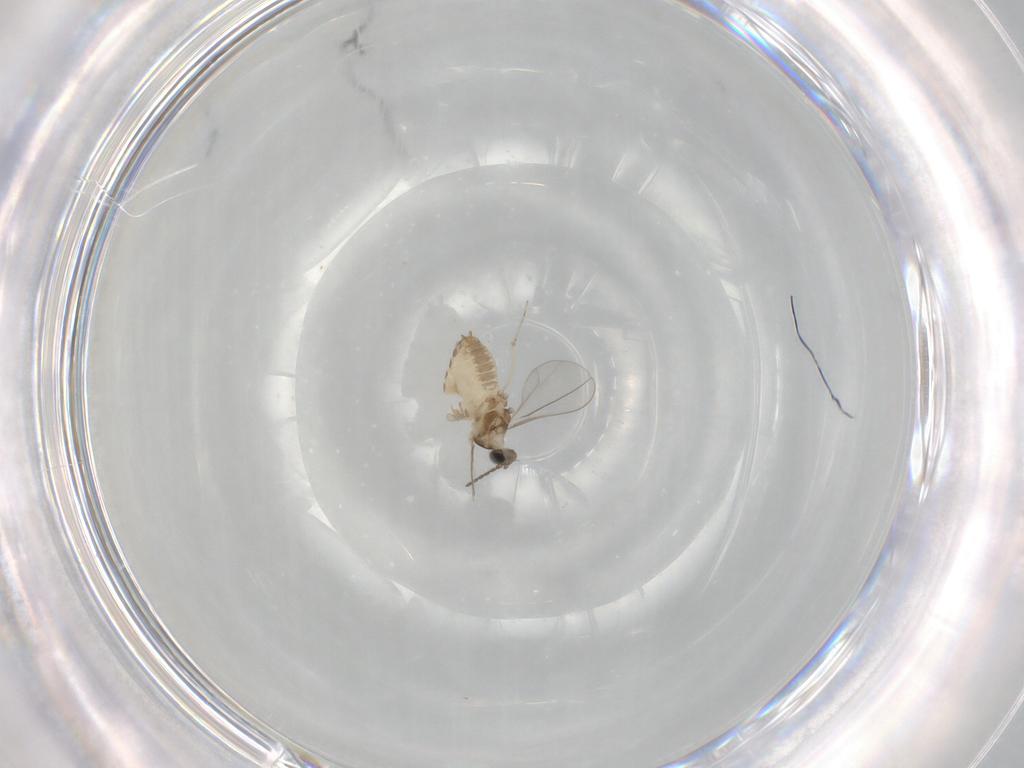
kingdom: Animalia
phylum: Arthropoda
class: Insecta
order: Diptera
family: Cecidomyiidae
